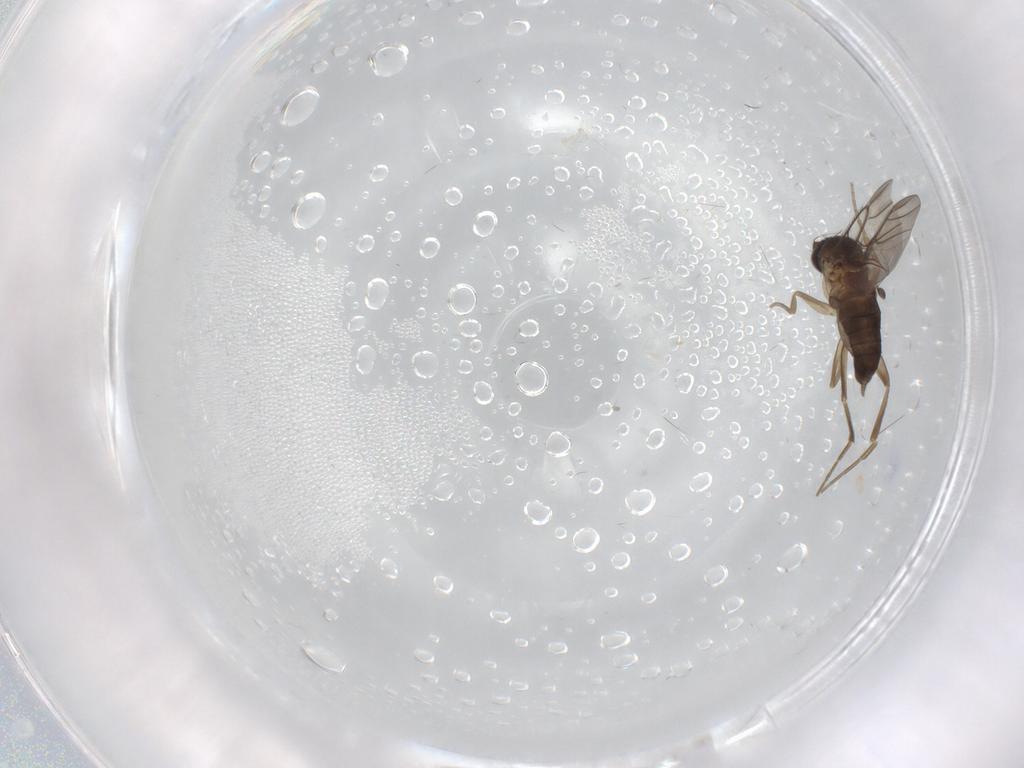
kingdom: Animalia
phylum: Arthropoda
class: Insecta
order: Diptera
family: Phoridae
